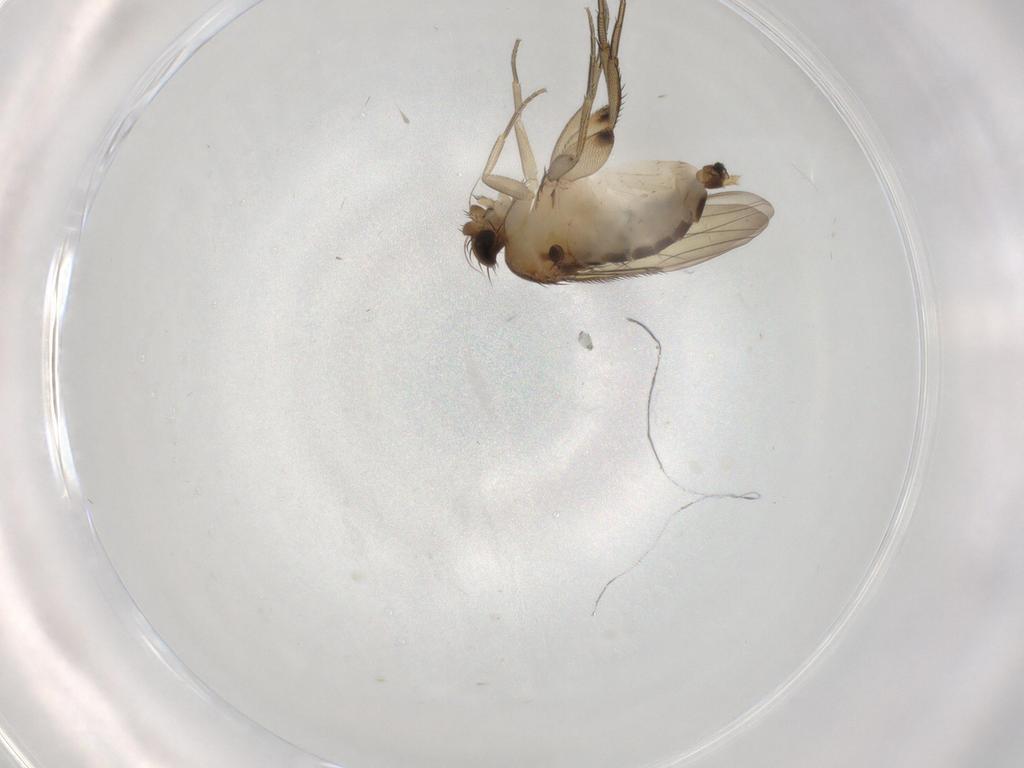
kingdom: Animalia
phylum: Arthropoda
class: Insecta
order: Diptera
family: Phoridae
